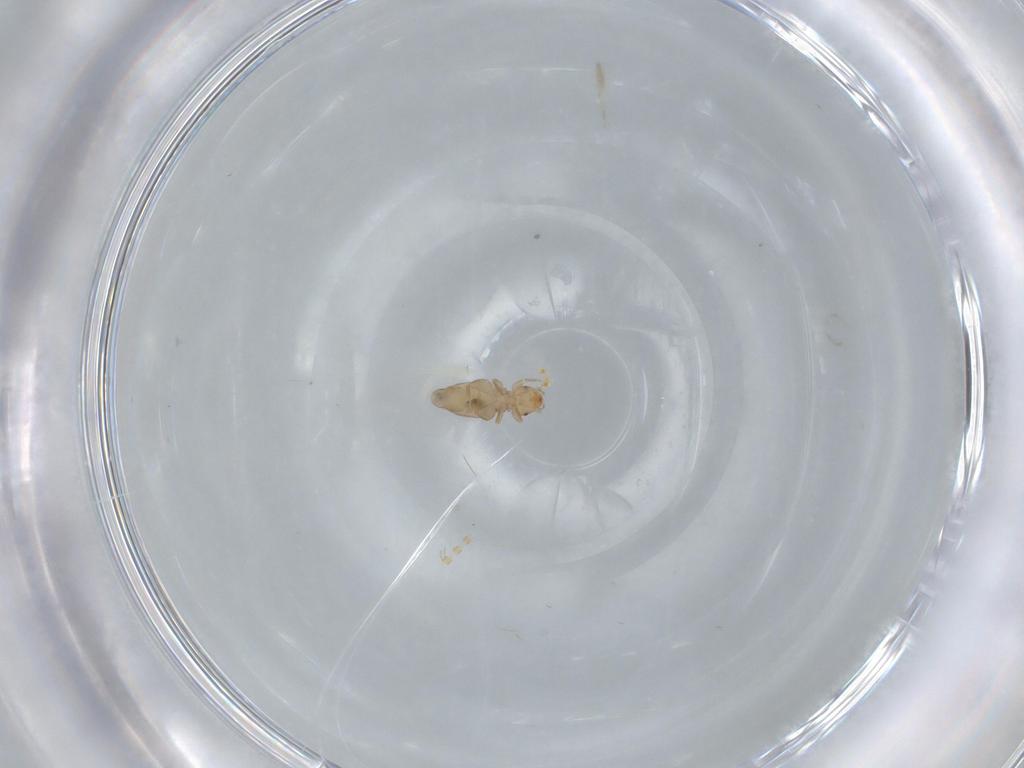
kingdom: Animalia
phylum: Arthropoda
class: Insecta
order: Psocodea
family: Liposcelididae
